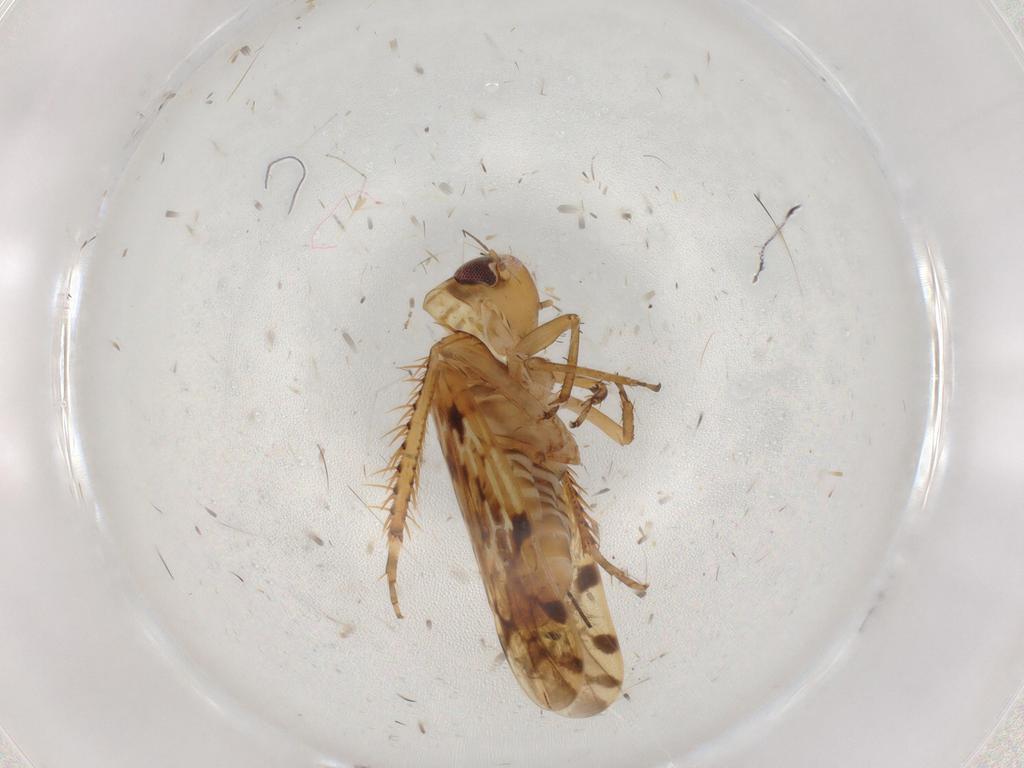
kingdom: Animalia
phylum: Arthropoda
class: Insecta
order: Hemiptera
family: Cicadellidae
